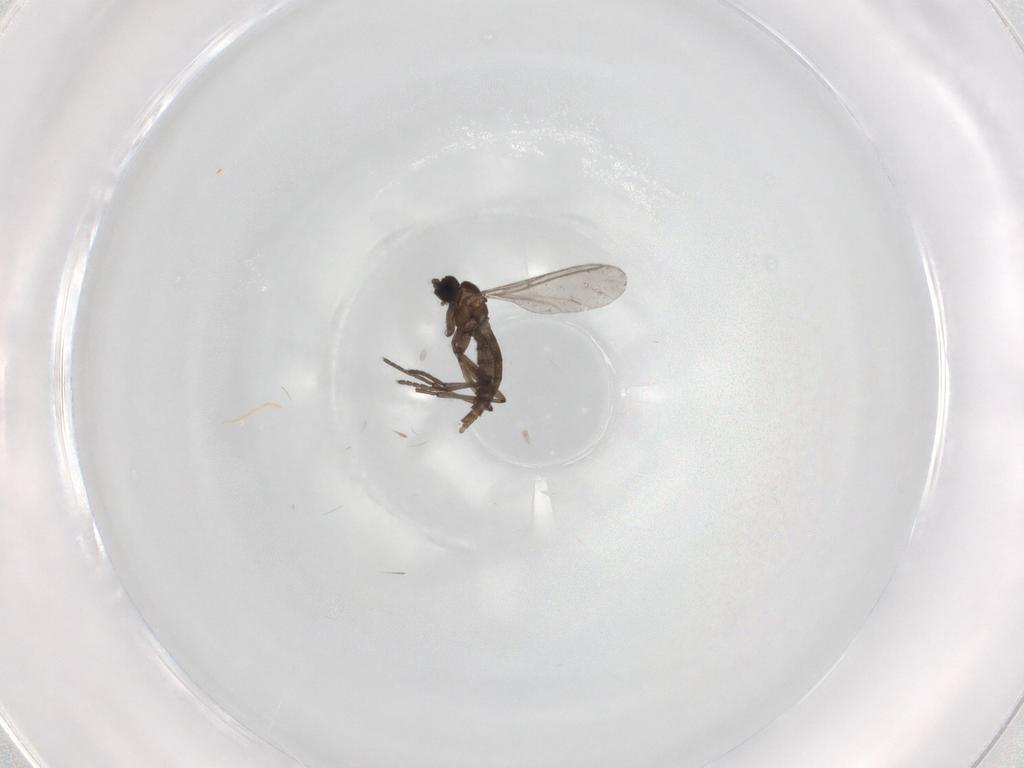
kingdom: Animalia
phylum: Arthropoda
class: Insecta
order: Diptera
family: Sciaridae
